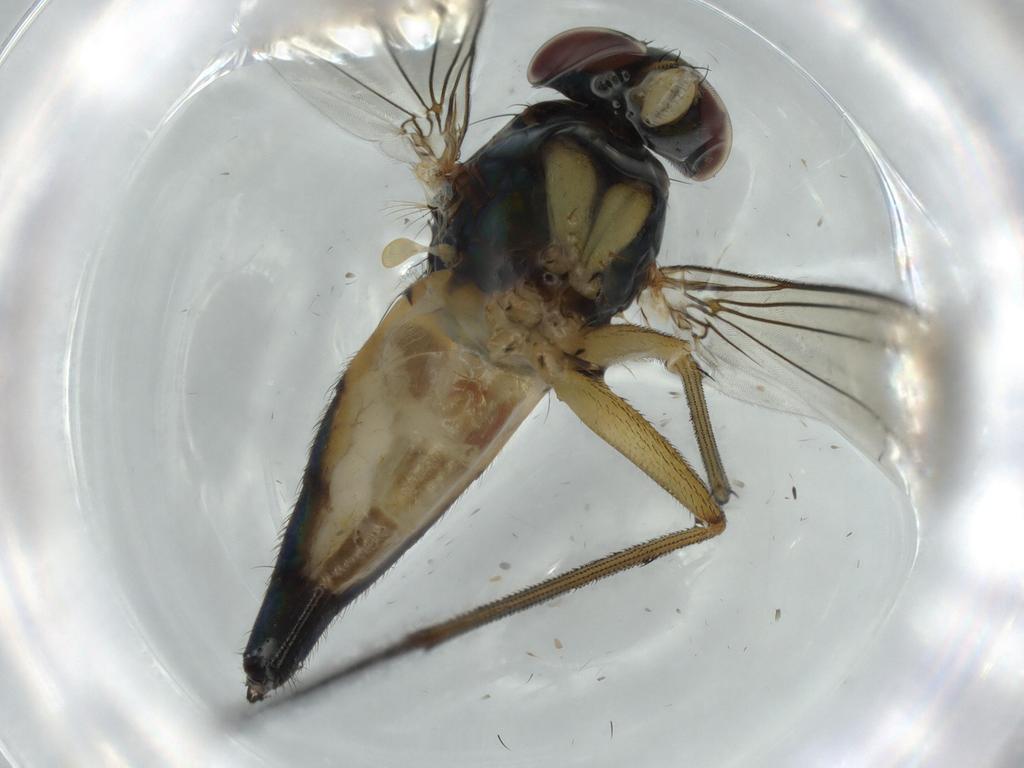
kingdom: Animalia
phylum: Arthropoda
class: Insecta
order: Diptera
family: Dolichopodidae
